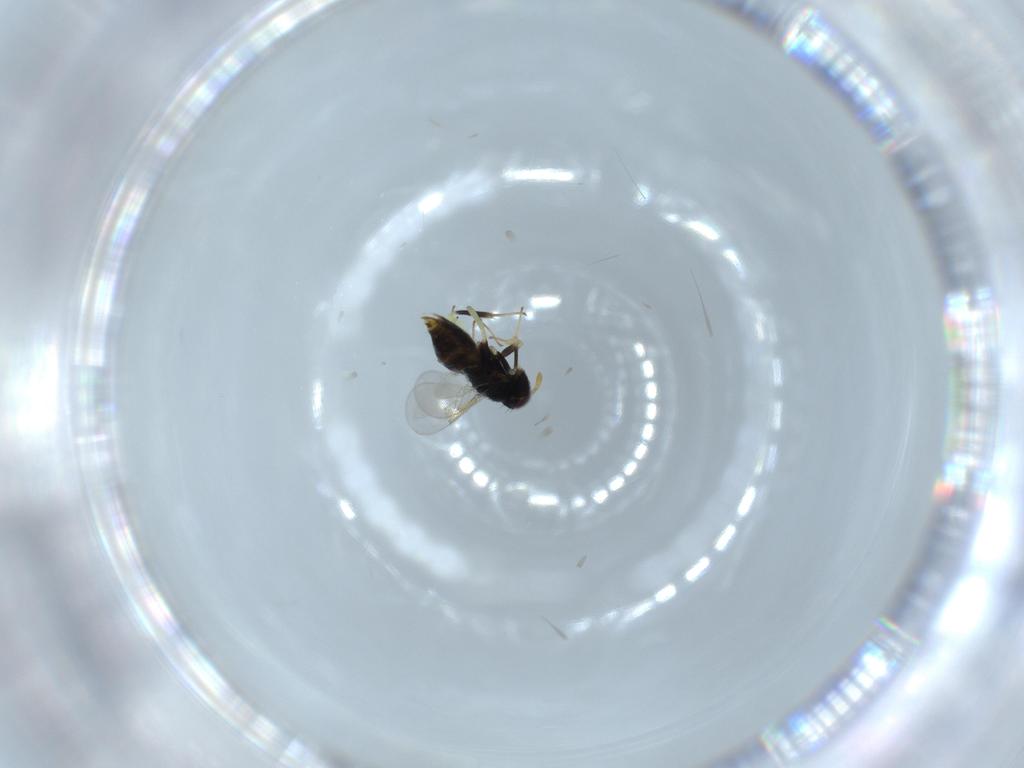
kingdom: Animalia
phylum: Arthropoda
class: Insecta
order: Hymenoptera
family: Aphelinidae
